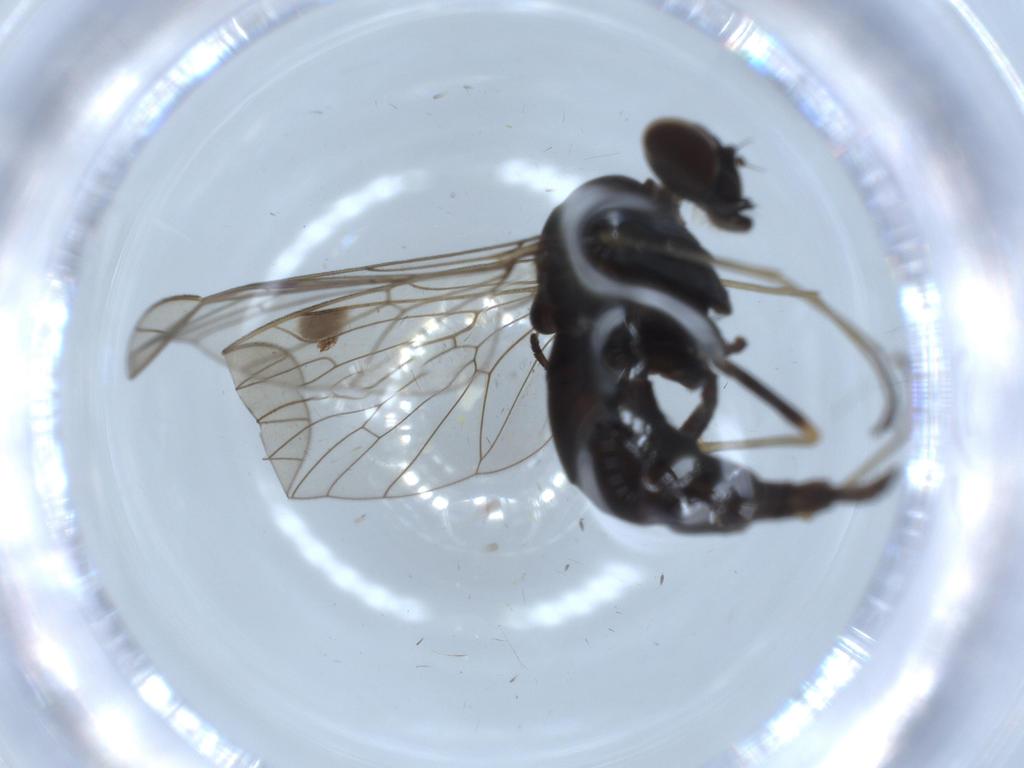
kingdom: Animalia
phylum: Arthropoda
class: Insecta
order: Diptera
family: Rhagionidae
